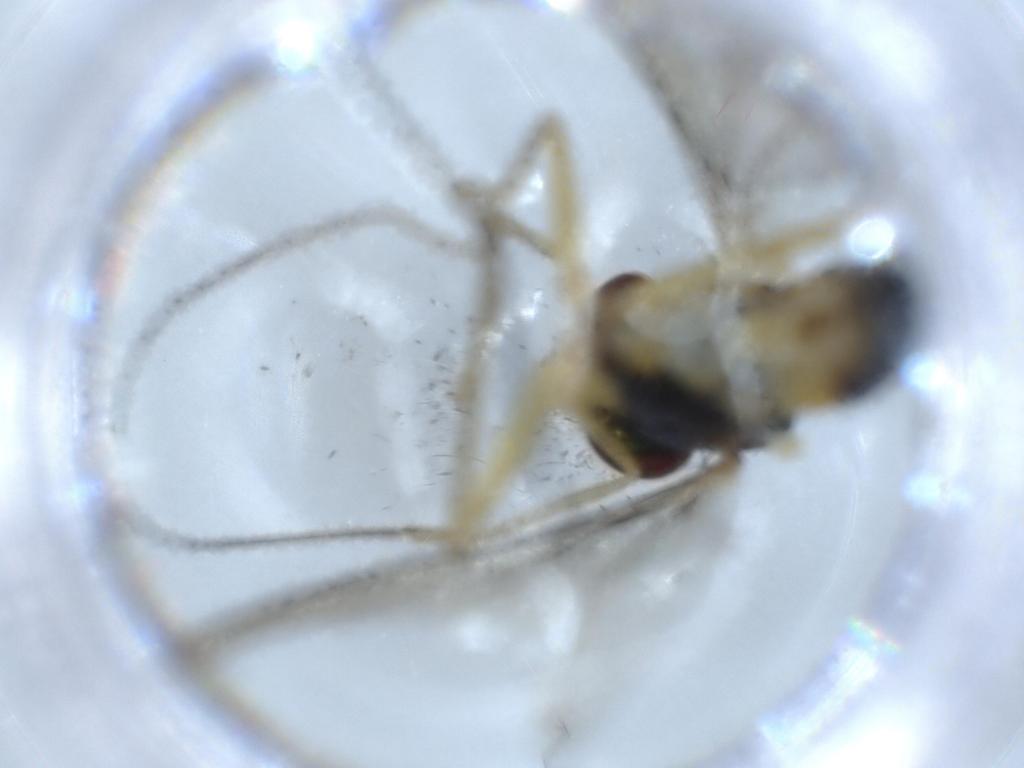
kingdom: Animalia
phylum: Arthropoda
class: Insecta
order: Diptera
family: Dolichopodidae
